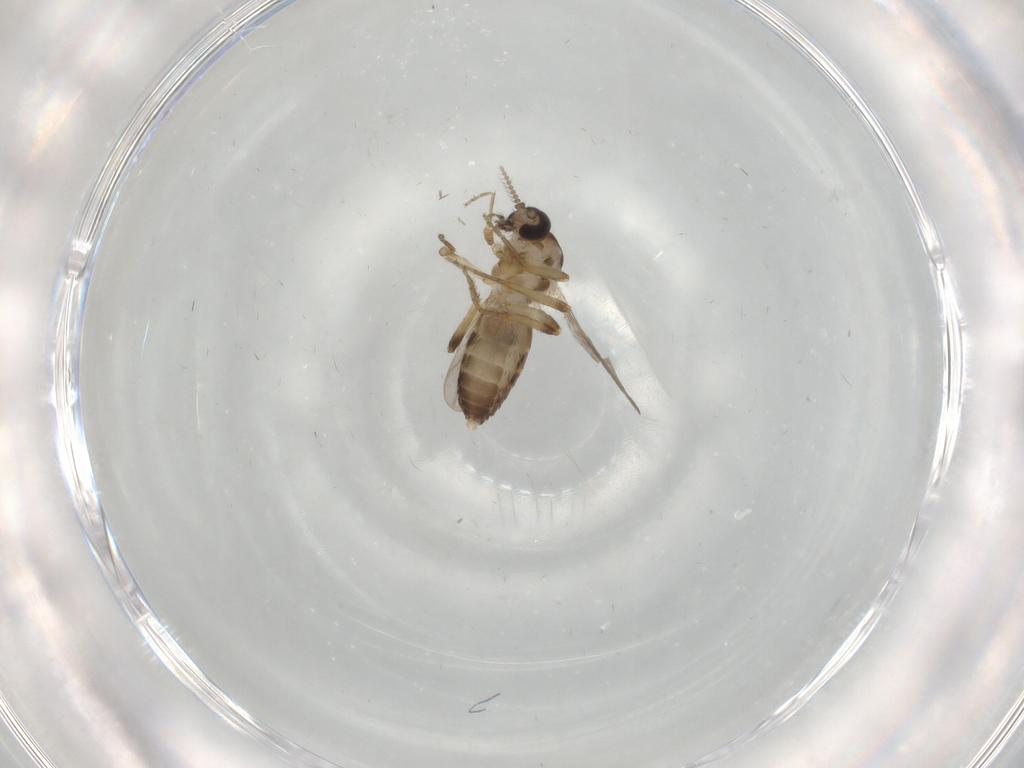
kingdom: Animalia
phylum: Arthropoda
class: Insecta
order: Diptera
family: Ceratopogonidae
